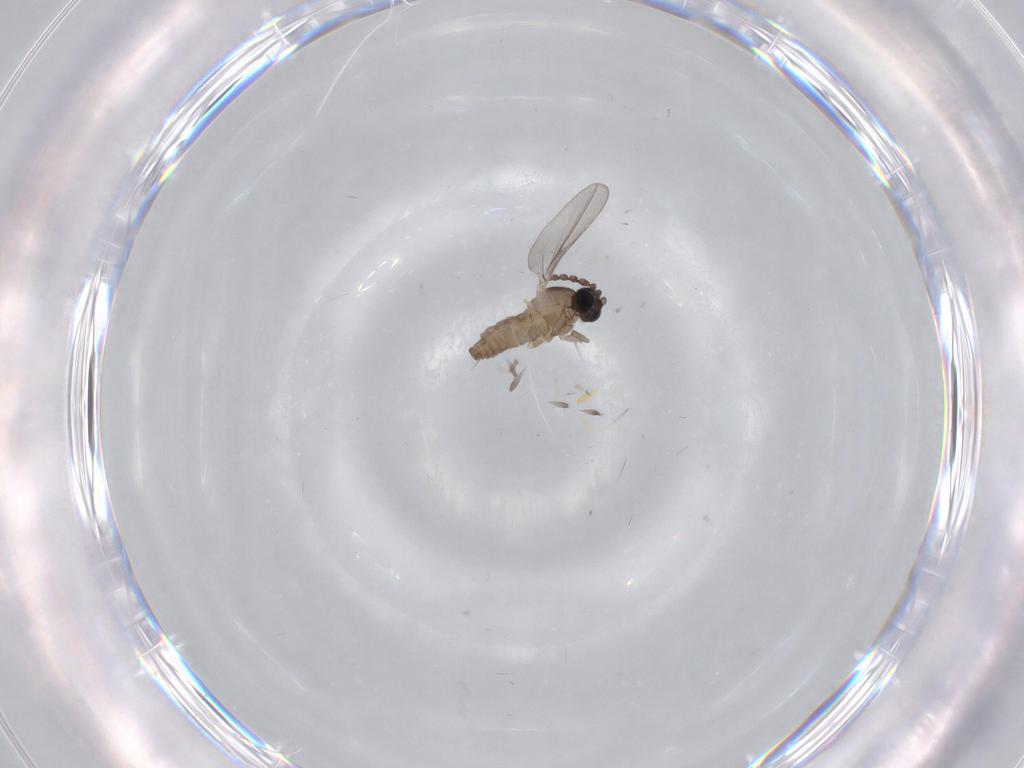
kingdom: Animalia
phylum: Arthropoda
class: Insecta
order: Diptera
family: Cecidomyiidae
